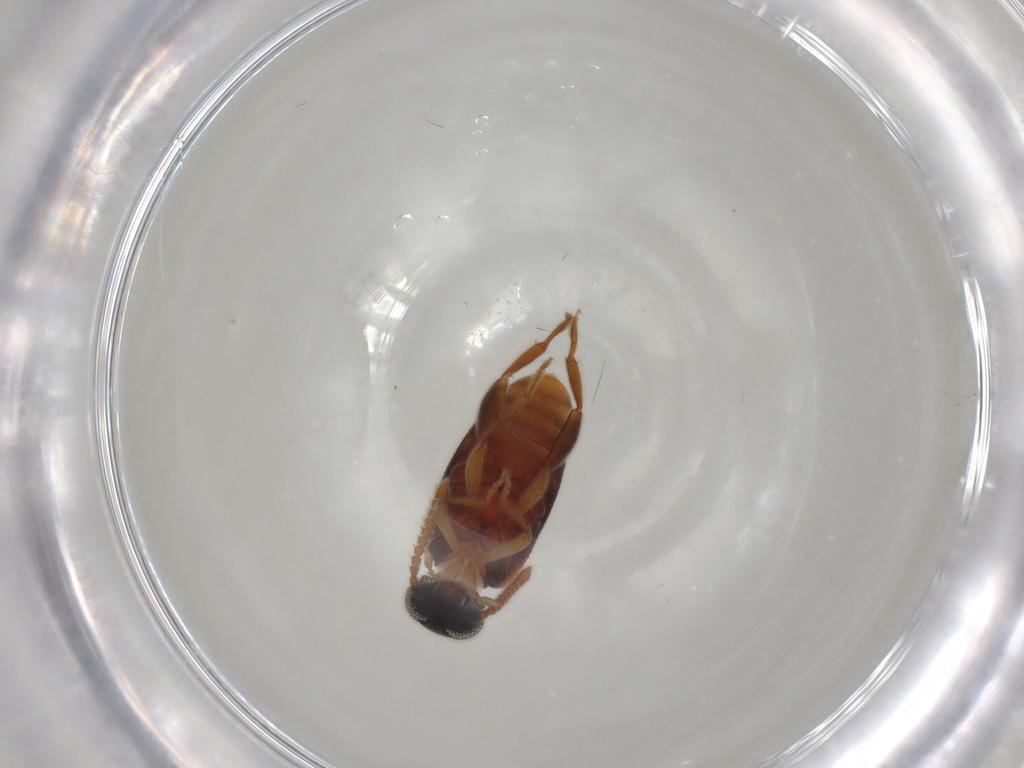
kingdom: Animalia
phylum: Arthropoda
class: Insecta
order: Coleoptera
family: Aderidae
